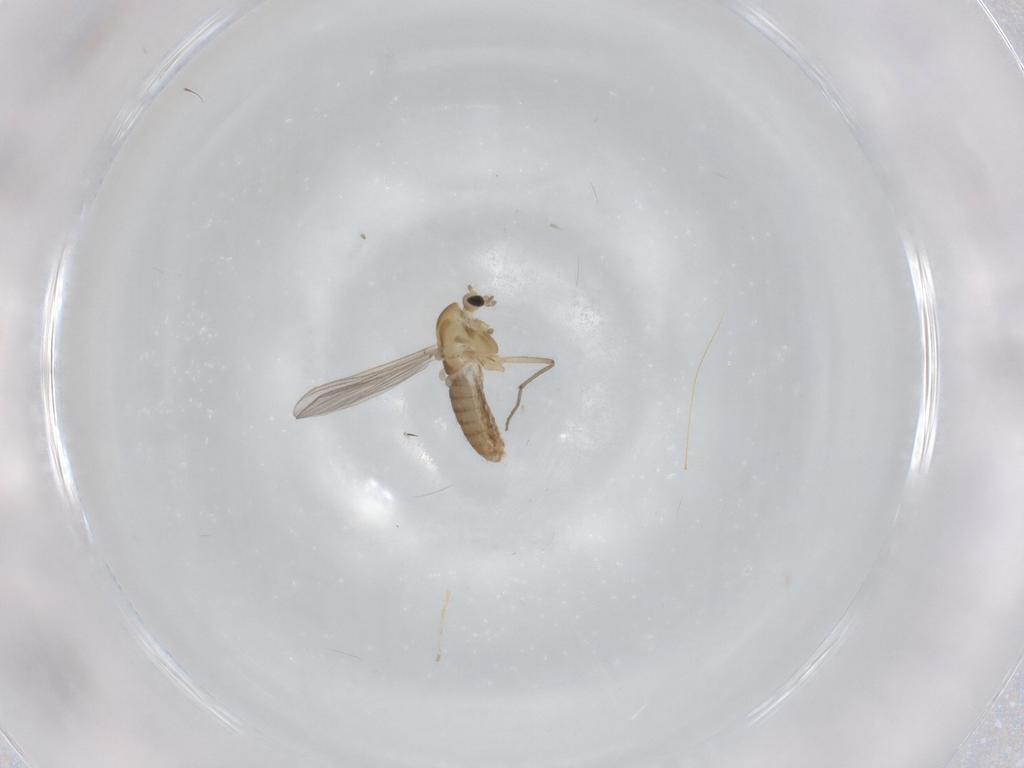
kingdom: Animalia
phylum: Arthropoda
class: Insecta
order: Diptera
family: Chironomidae
